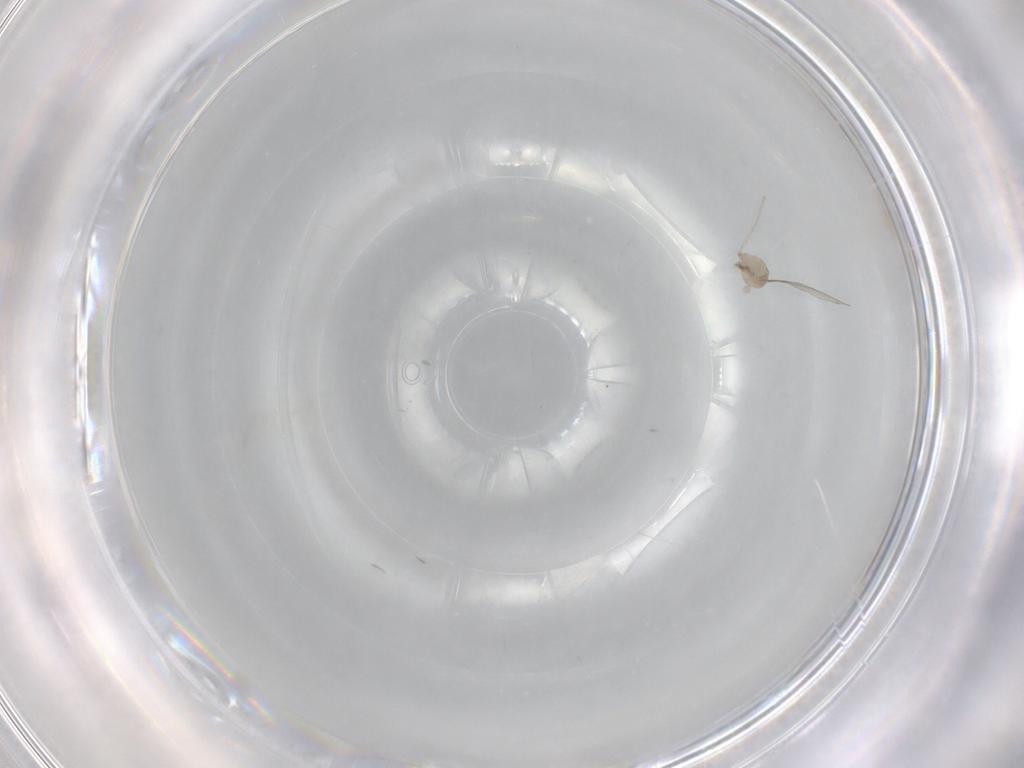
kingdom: Animalia
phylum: Arthropoda
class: Insecta
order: Diptera
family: Cecidomyiidae
